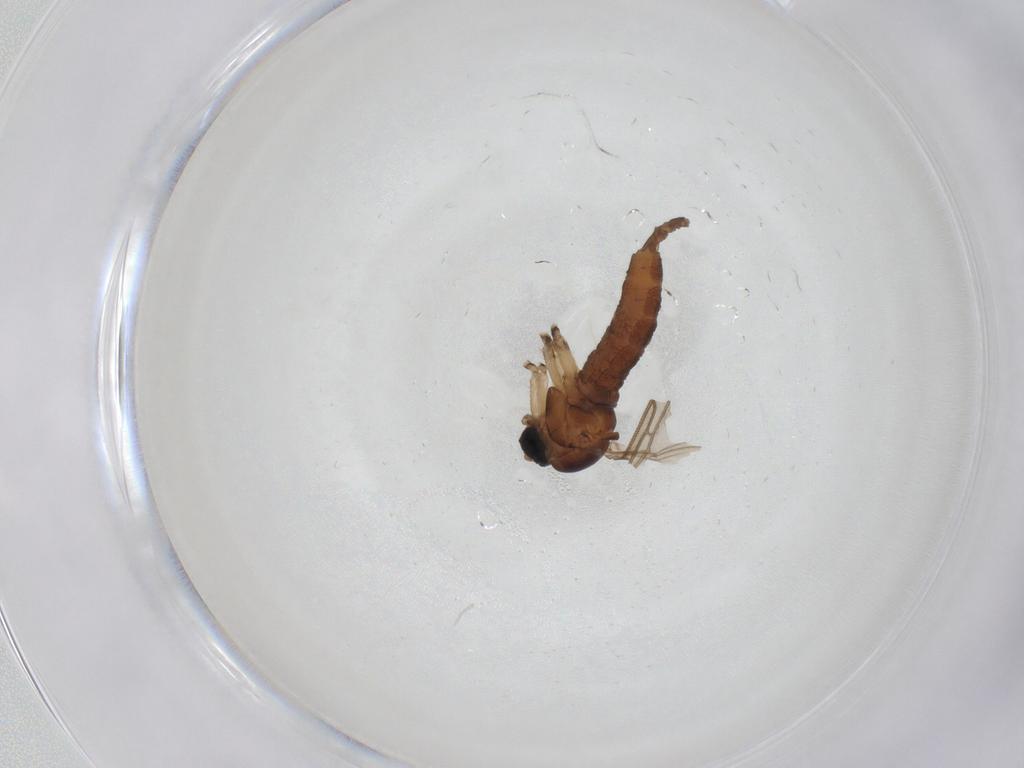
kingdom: Animalia
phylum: Arthropoda
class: Insecta
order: Diptera
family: Sciaridae
